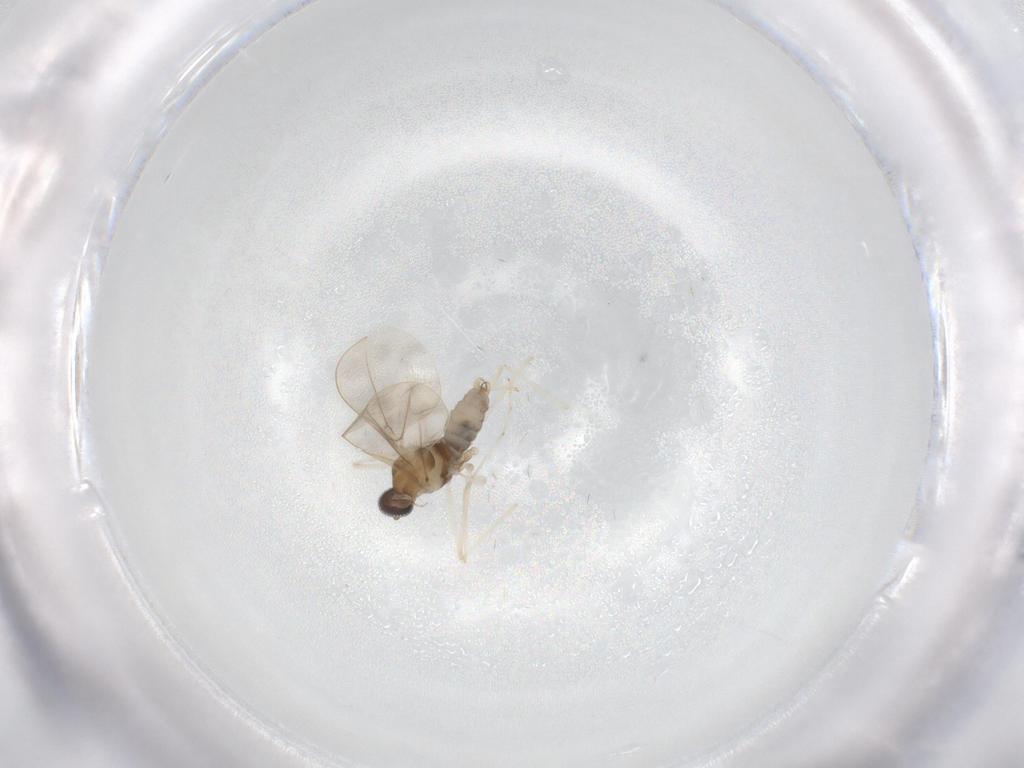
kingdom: Animalia
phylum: Arthropoda
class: Insecta
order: Diptera
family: Cecidomyiidae
